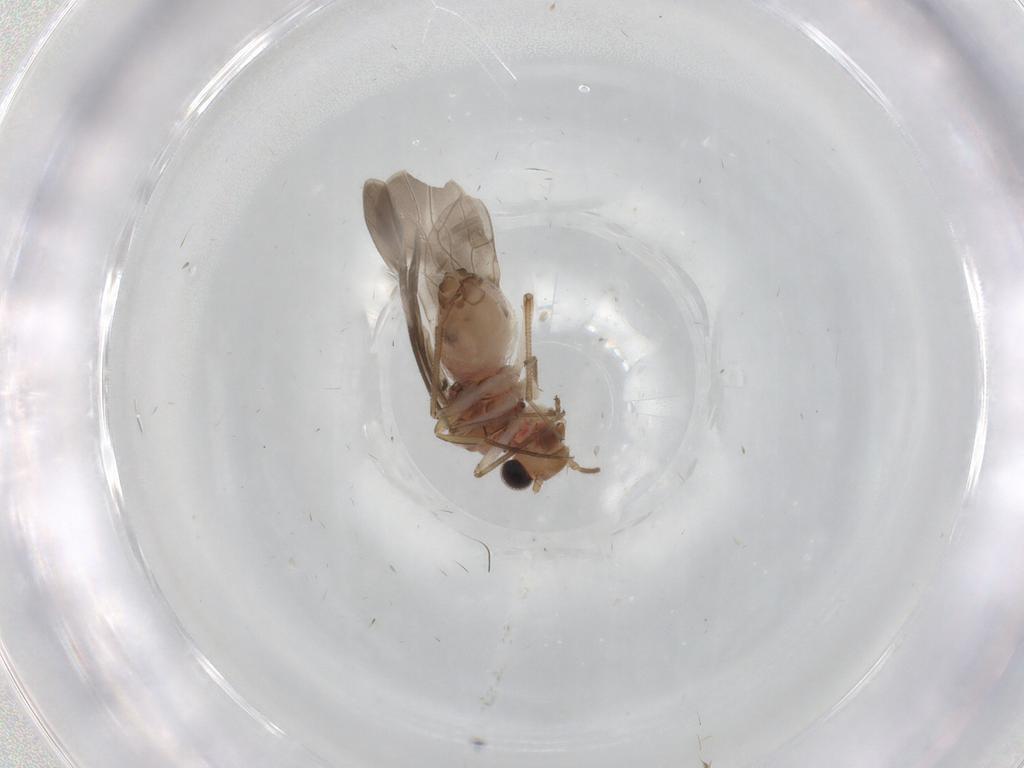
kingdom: Animalia
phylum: Arthropoda
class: Insecta
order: Psocodea
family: Caeciliusidae
